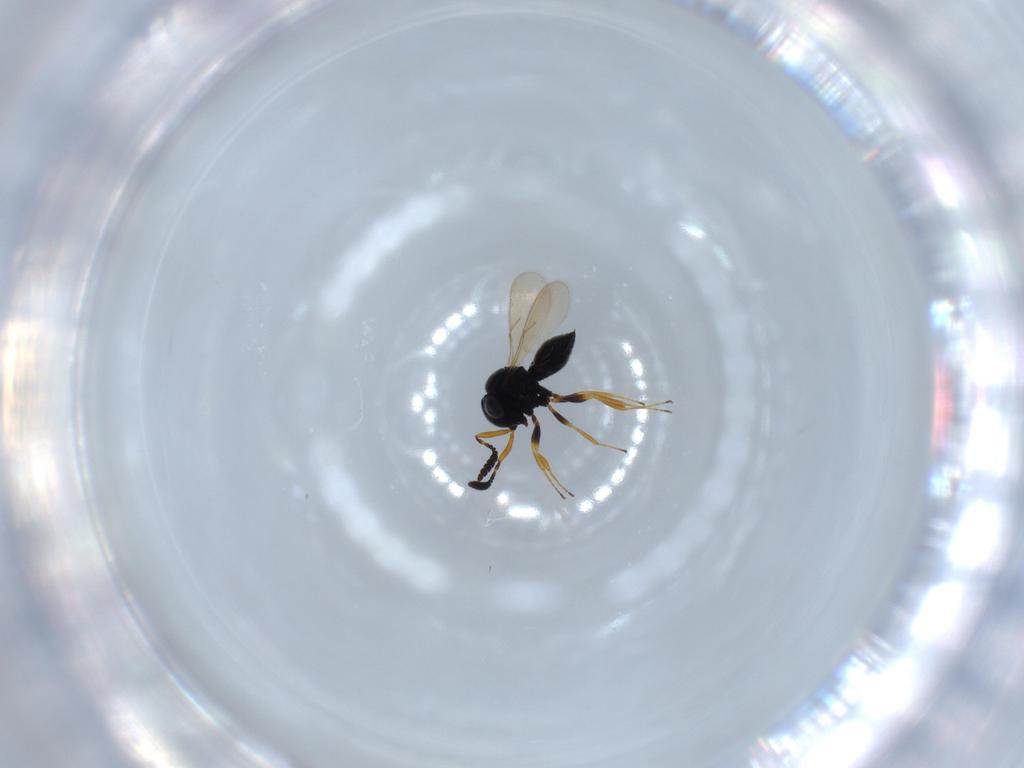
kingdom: Animalia
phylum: Arthropoda
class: Insecta
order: Hymenoptera
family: Scelionidae
